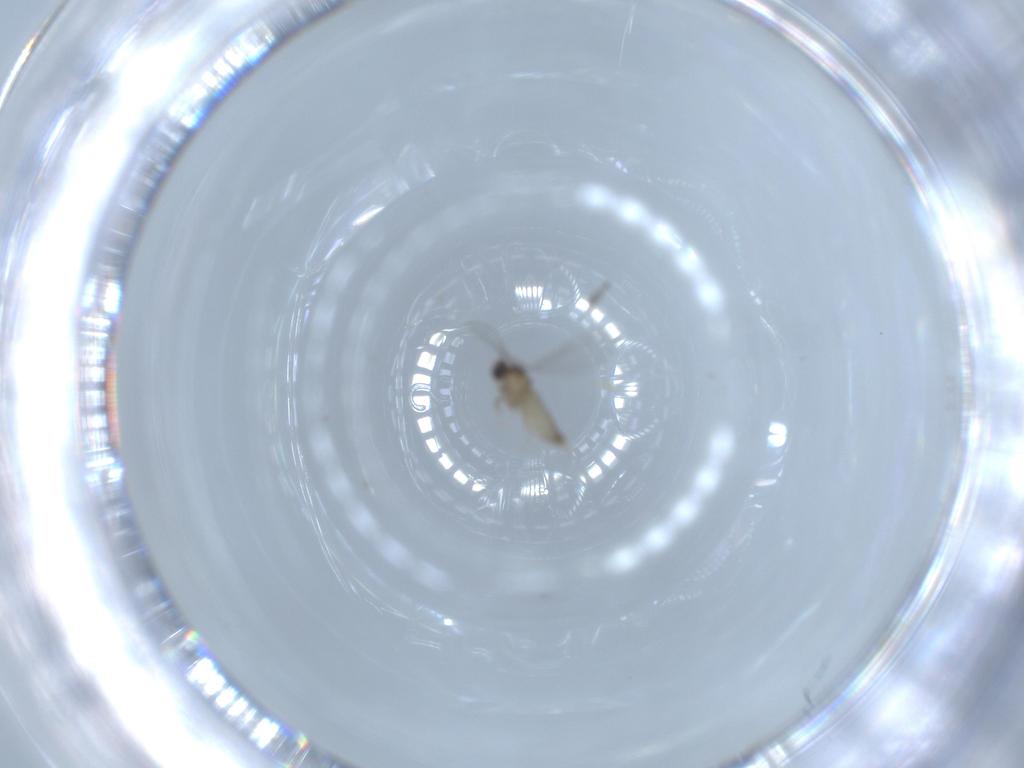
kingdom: Animalia
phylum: Arthropoda
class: Insecta
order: Diptera
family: Cecidomyiidae
